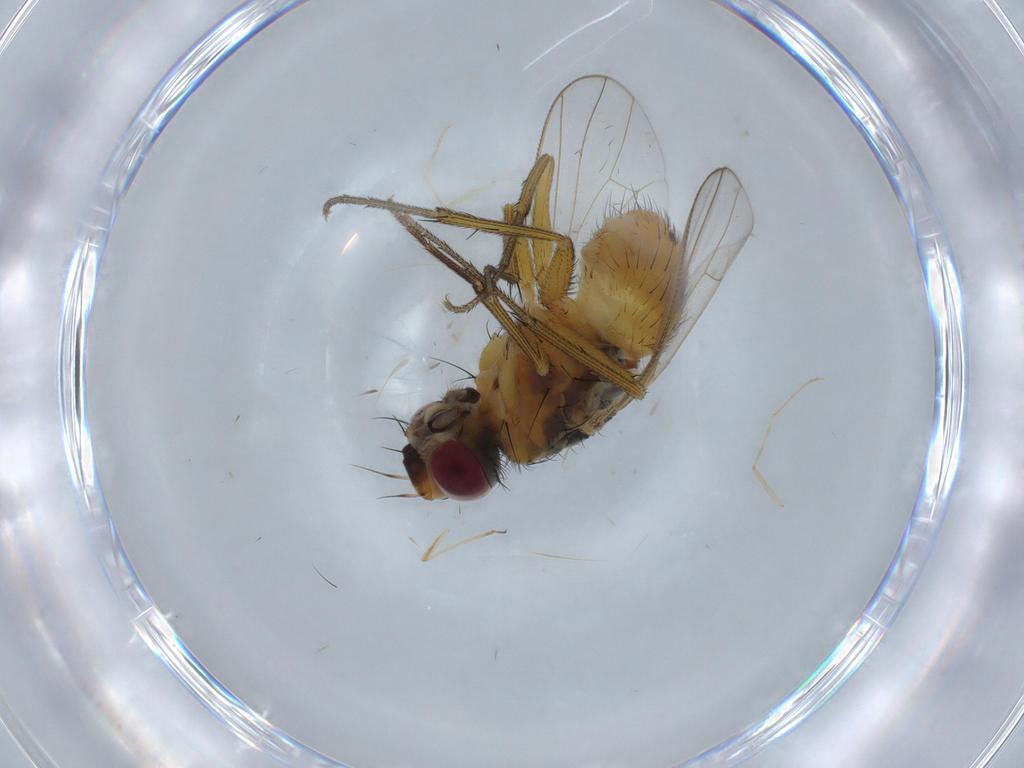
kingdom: Animalia
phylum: Arthropoda
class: Insecta
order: Diptera
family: Muscidae
